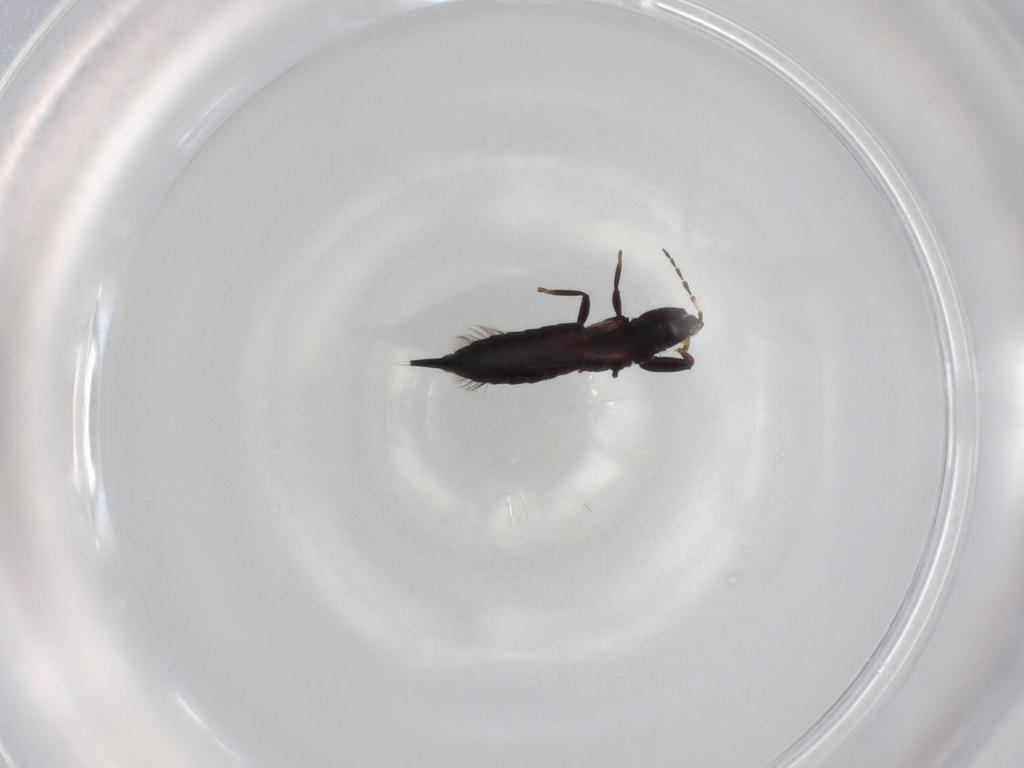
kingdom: Animalia
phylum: Arthropoda
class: Insecta
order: Thysanoptera
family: Phlaeothripidae
